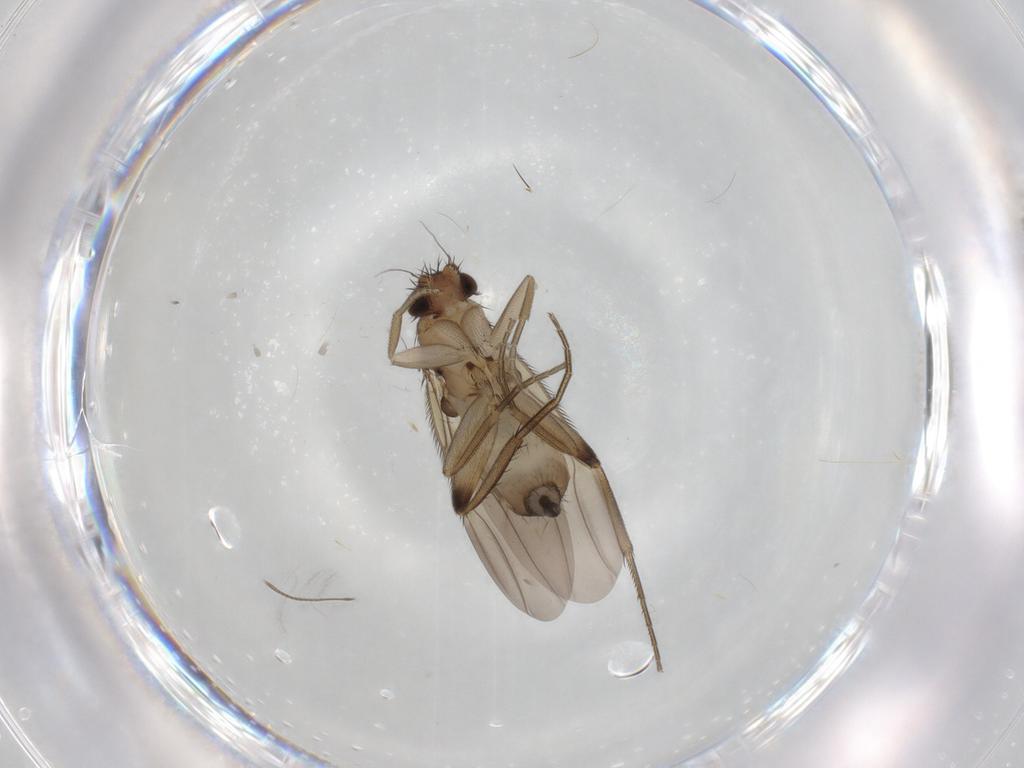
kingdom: Animalia
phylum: Arthropoda
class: Insecta
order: Diptera
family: Phoridae
